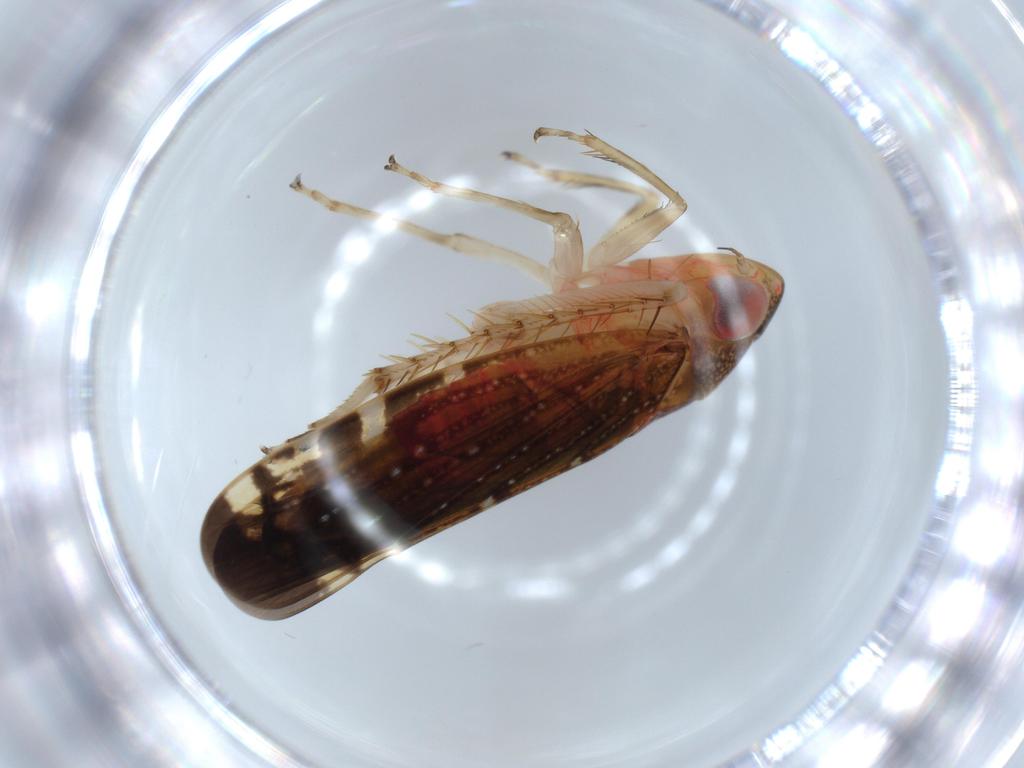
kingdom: Animalia
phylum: Arthropoda
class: Insecta
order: Hemiptera
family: Cicadellidae
